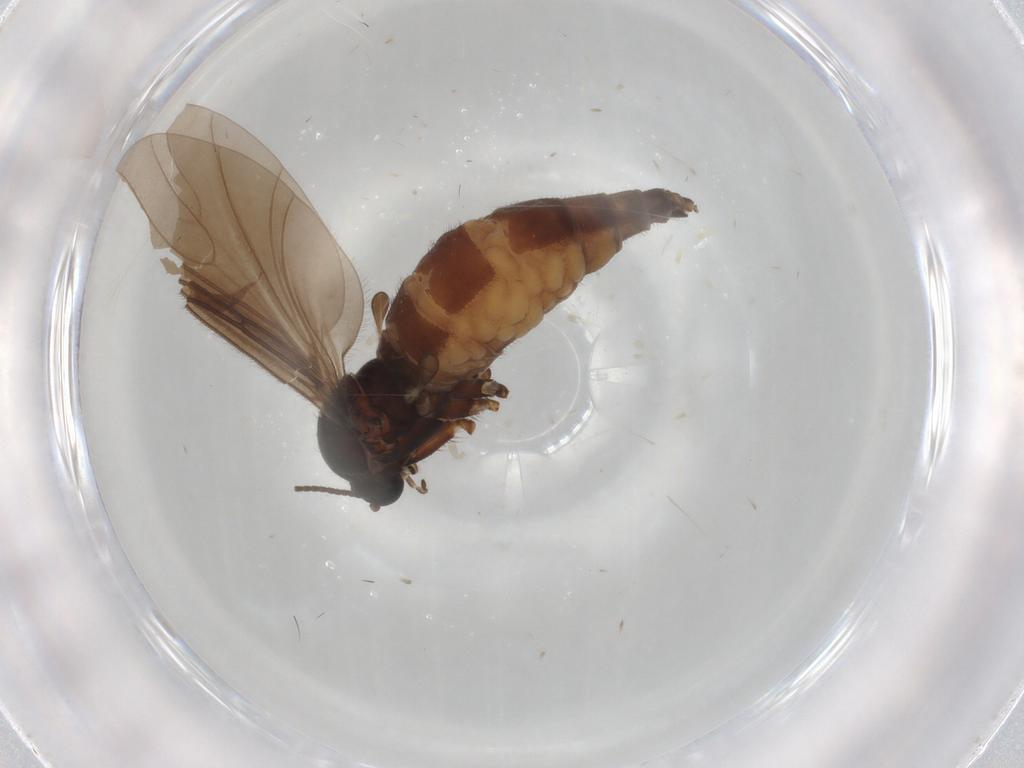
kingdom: Animalia
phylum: Arthropoda
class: Insecta
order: Diptera
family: Sciaridae
